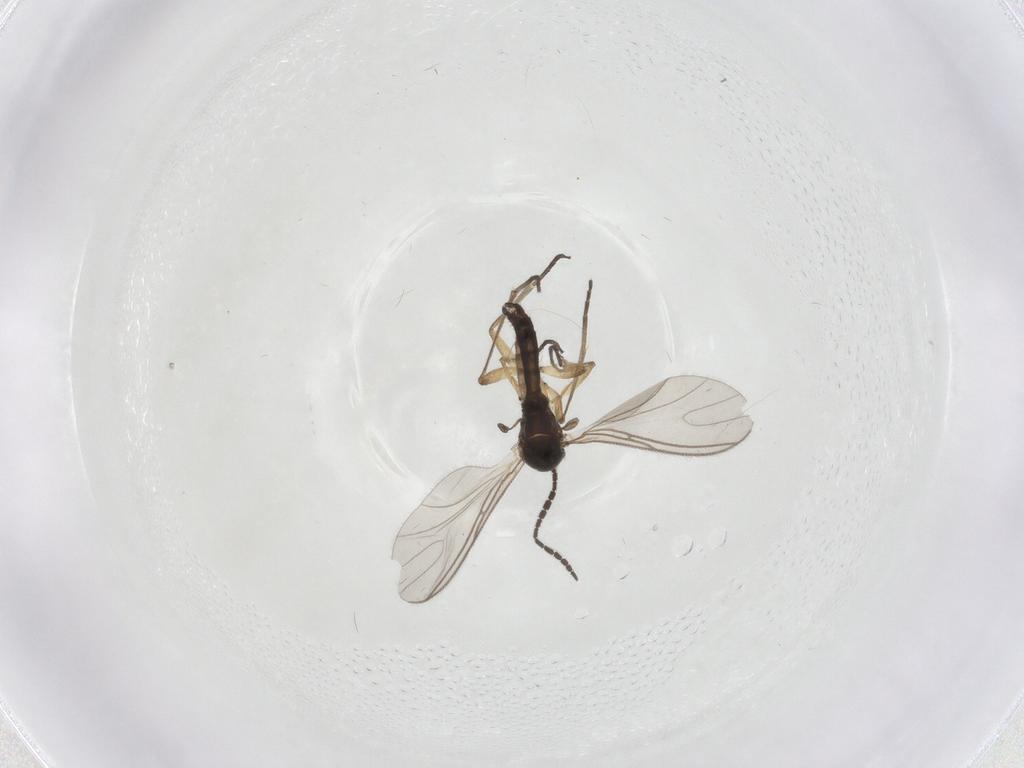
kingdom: Animalia
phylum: Arthropoda
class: Insecta
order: Diptera
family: Sciaridae
